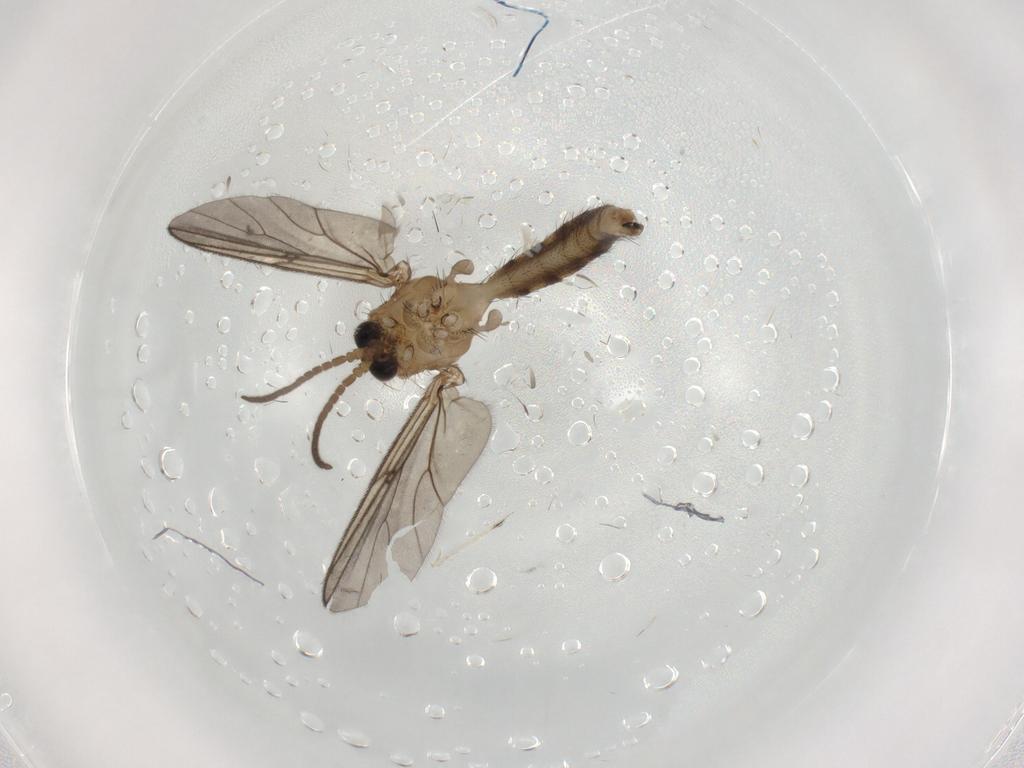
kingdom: Animalia
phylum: Arthropoda
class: Insecta
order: Diptera
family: Mycetophilidae
